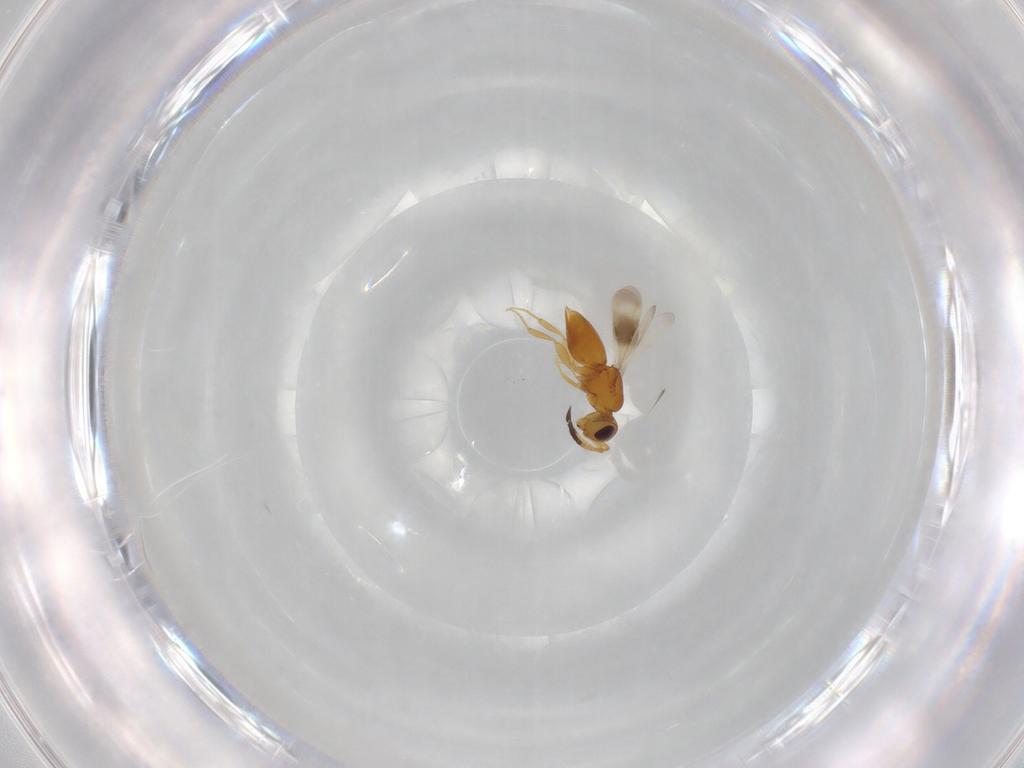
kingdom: Animalia
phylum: Arthropoda
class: Insecta
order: Hymenoptera
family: Ceraphronidae
